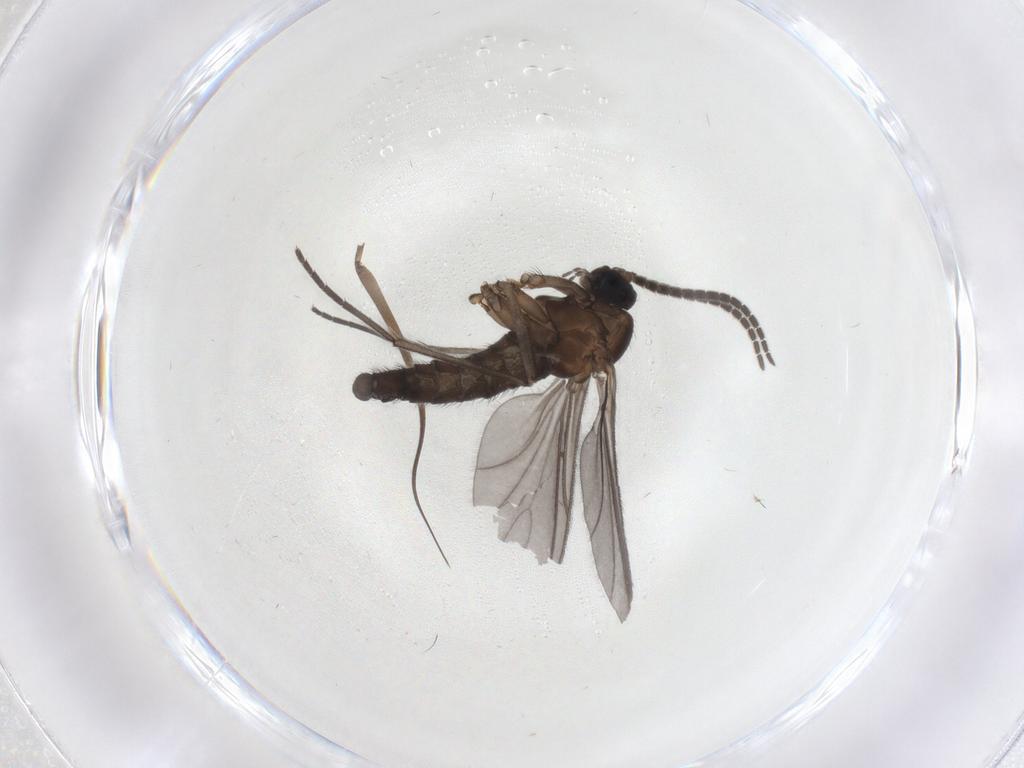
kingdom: Animalia
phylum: Arthropoda
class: Insecta
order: Diptera
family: Sciaridae
